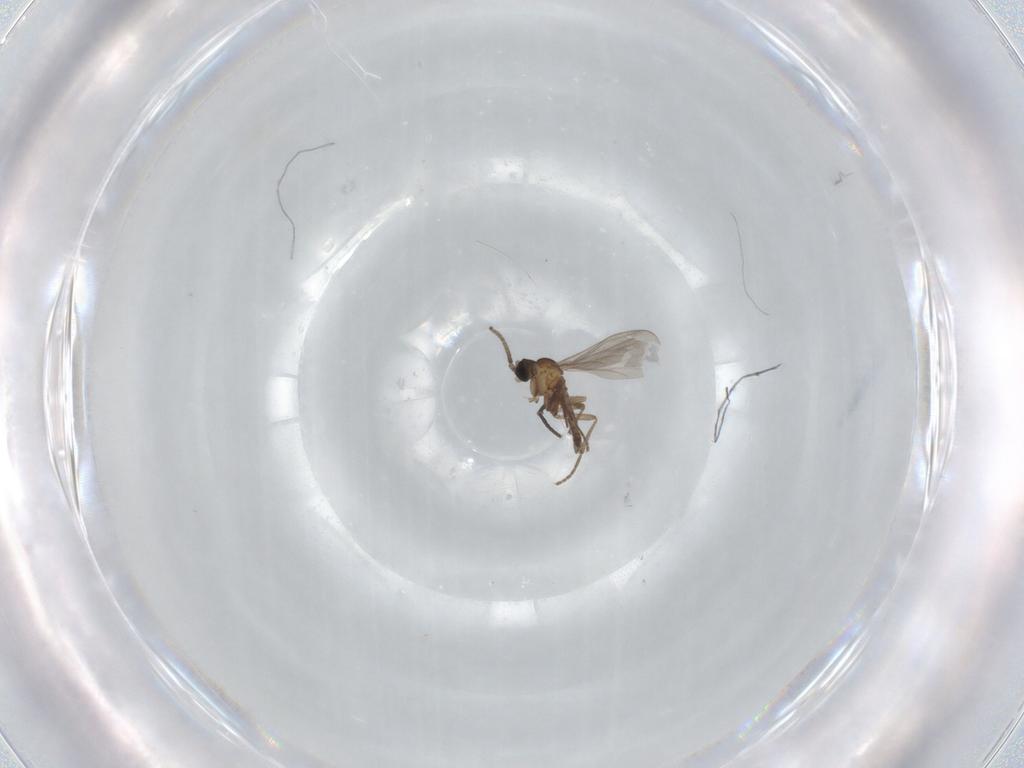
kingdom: Animalia
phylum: Arthropoda
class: Insecta
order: Diptera
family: Sciaridae
